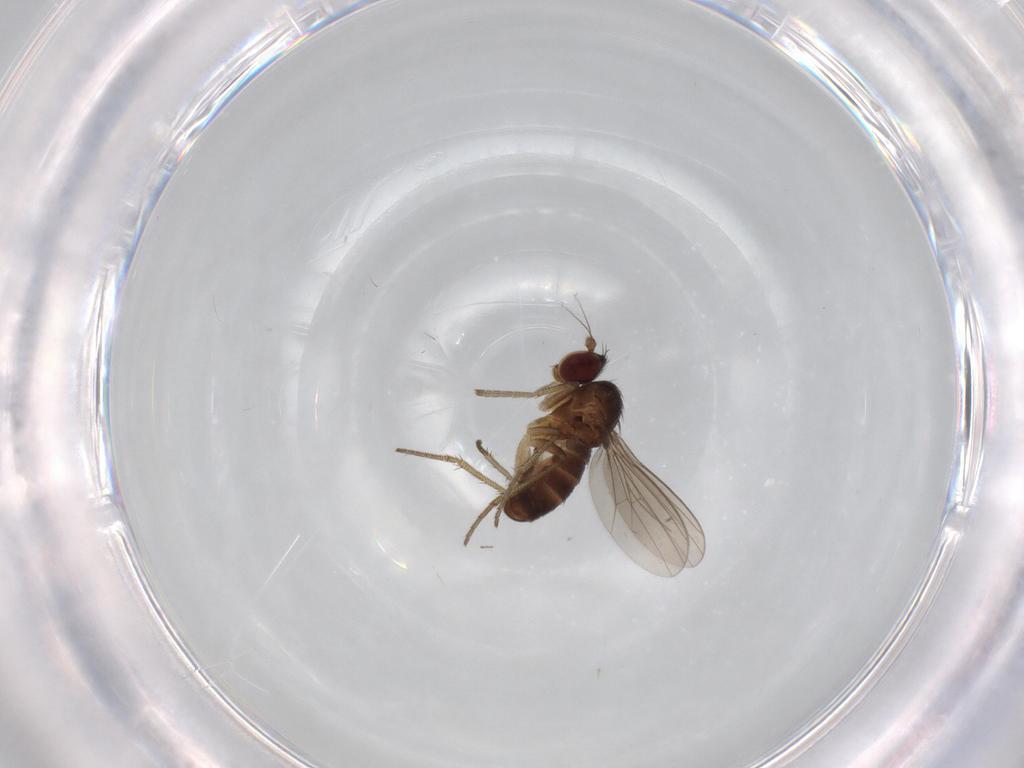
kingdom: Animalia
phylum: Arthropoda
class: Insecta
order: Diptera
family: Dolichopodidae
